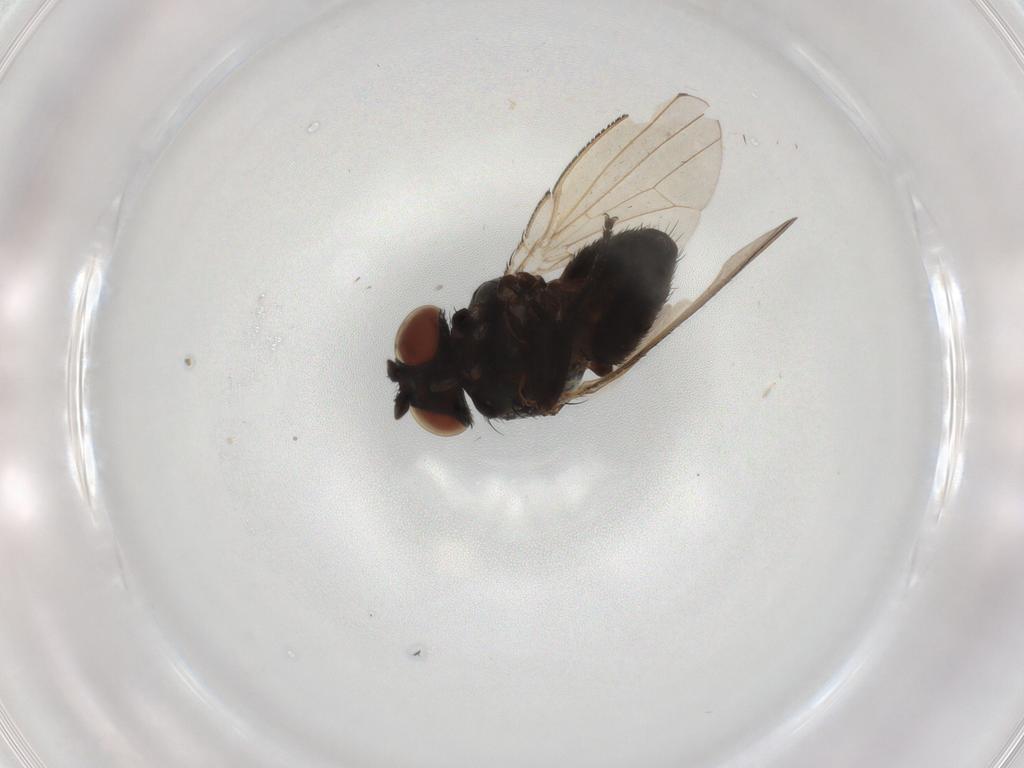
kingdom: Animalia
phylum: Arthropoda
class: Insecta
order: Diptera
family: Milichiidae
